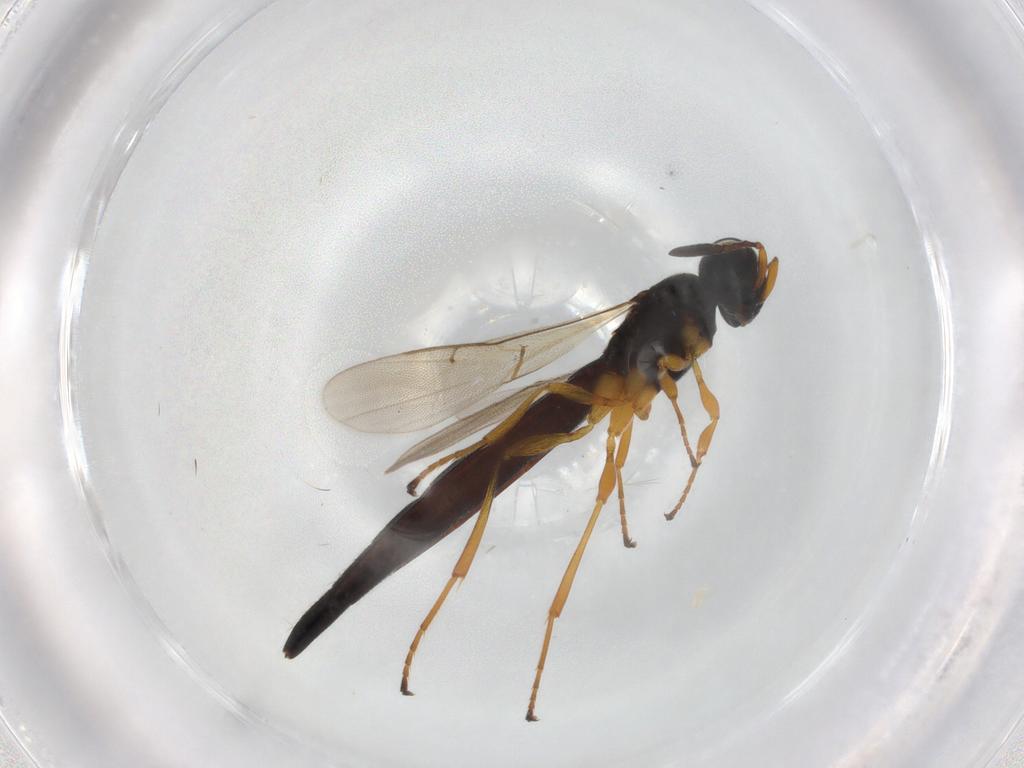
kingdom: Animalia
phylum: Arthropoda
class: Insecta
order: Hymenoptera
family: Scelionidae
